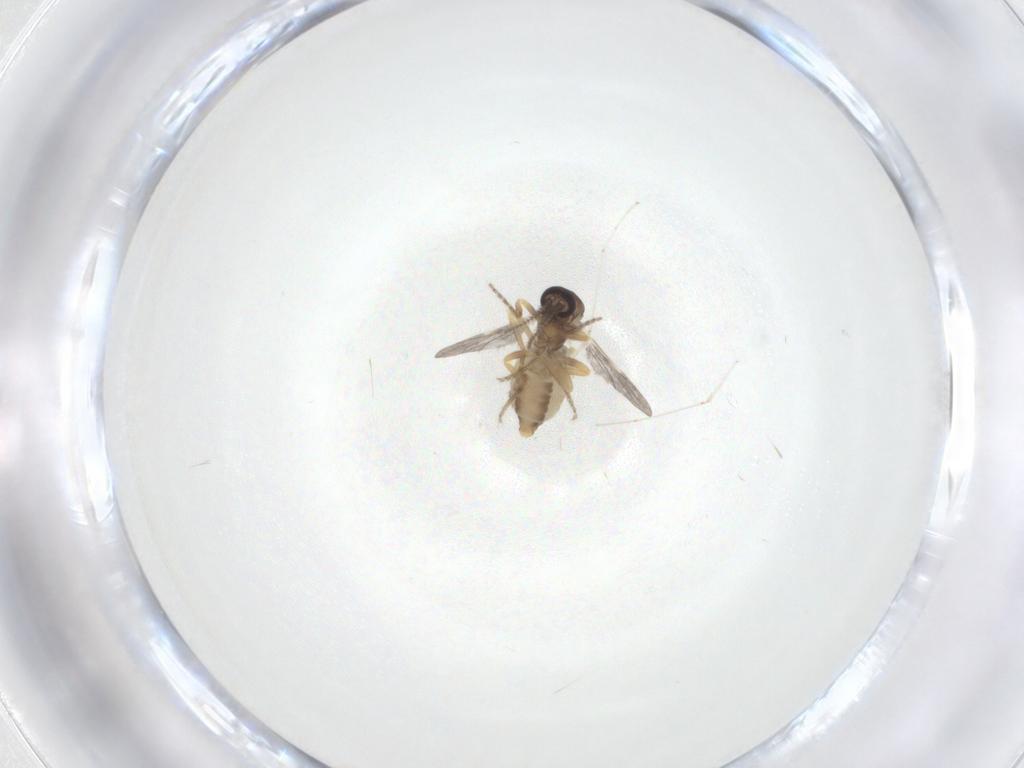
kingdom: Animalia
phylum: Arthropoda
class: Insecta
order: Diptera
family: Ceratopogonidae
